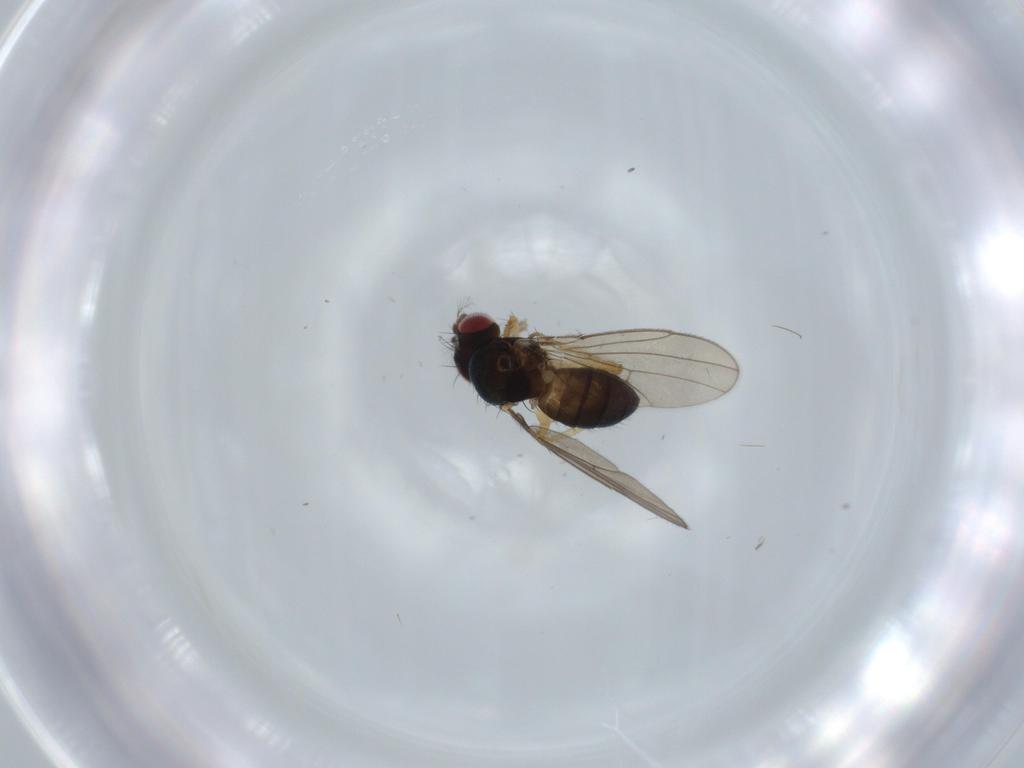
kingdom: Animalia
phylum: Arthropoda
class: Insecta
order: Diptera
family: Drosophilidae
